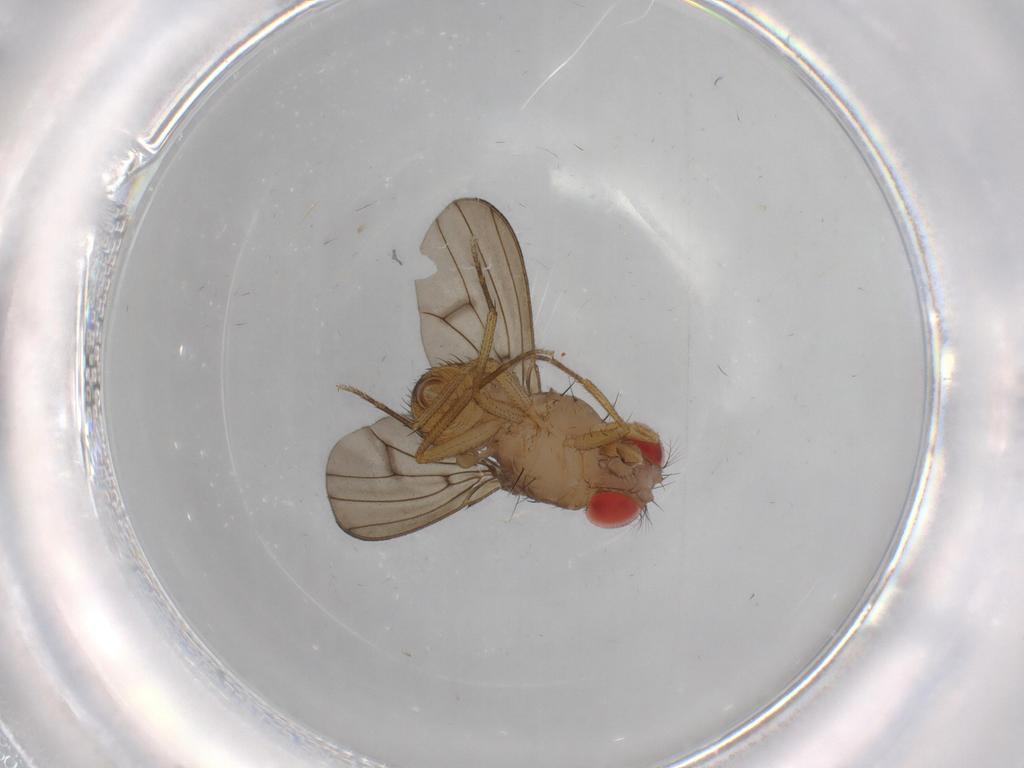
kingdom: Animalia
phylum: Arthropoda
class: Insecta
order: Diptera
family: Drosophilidae
